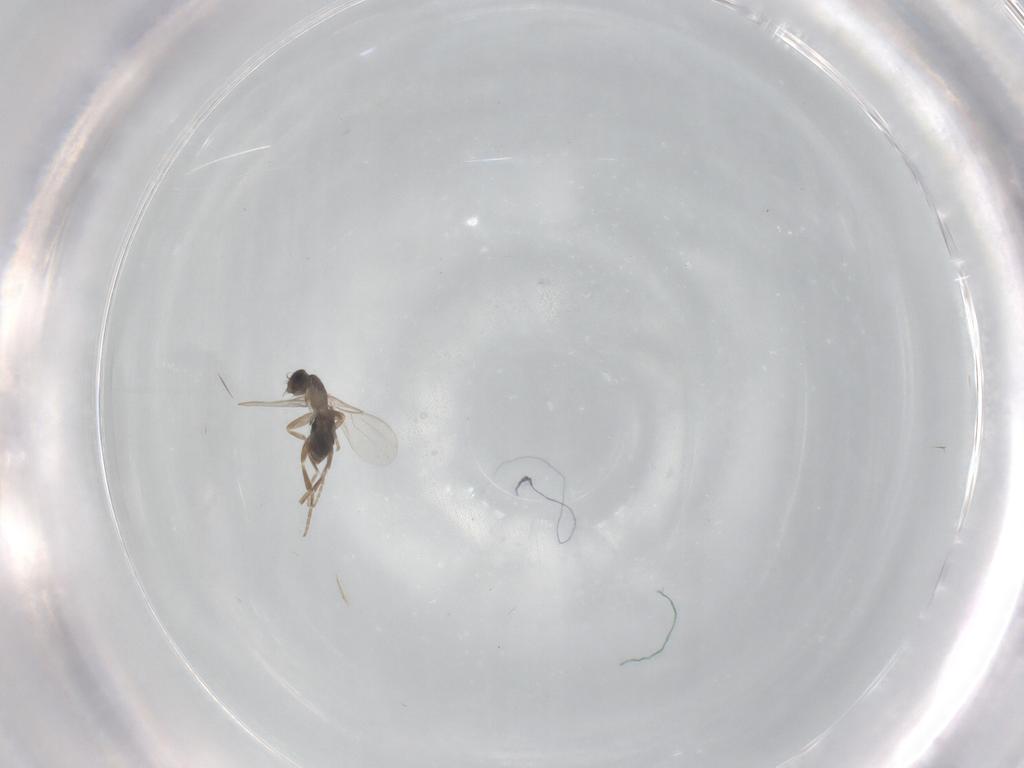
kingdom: Animalia
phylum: Arthropoda
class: Insecta
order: Diptera
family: Phoridae
